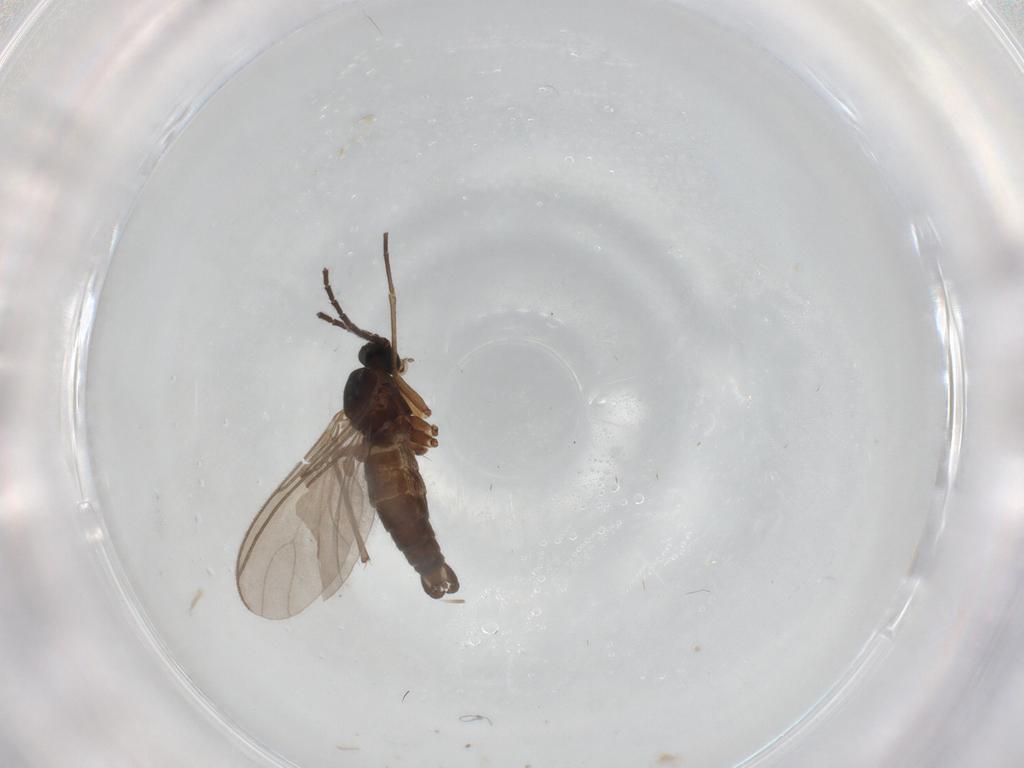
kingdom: Animalia
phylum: Arthropoda
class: Insecta
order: Diptera
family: Sciaridae
